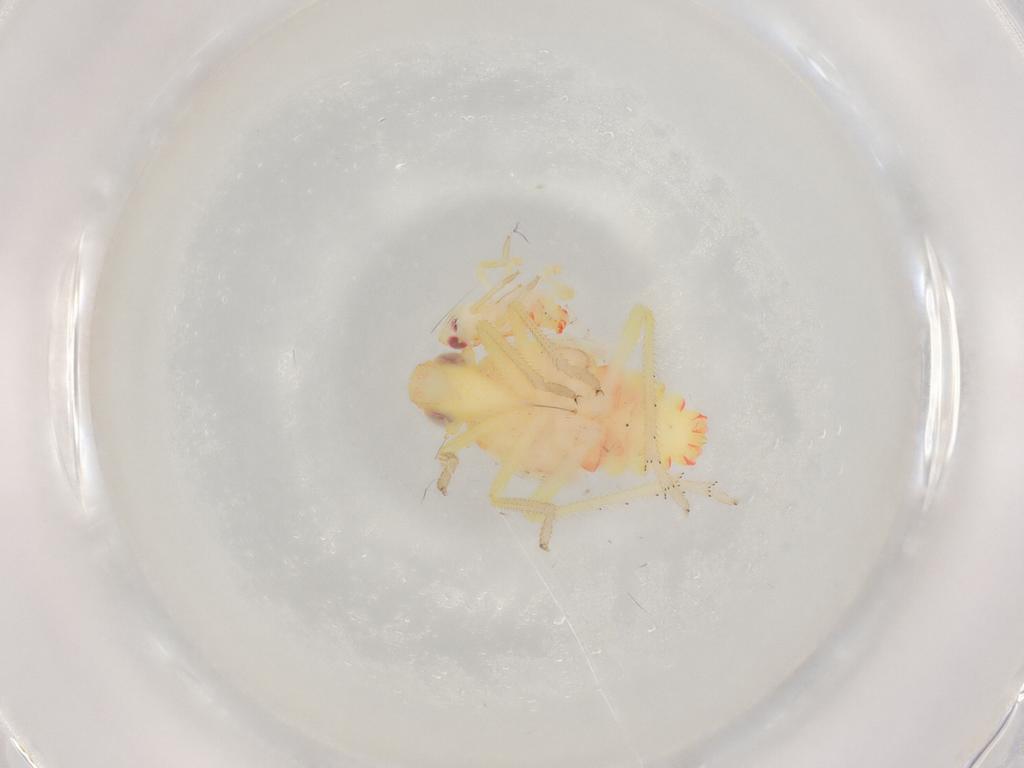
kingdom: Animalia
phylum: Arthropoda
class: Insecta
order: Hemiptera
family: Tropiduchidae
